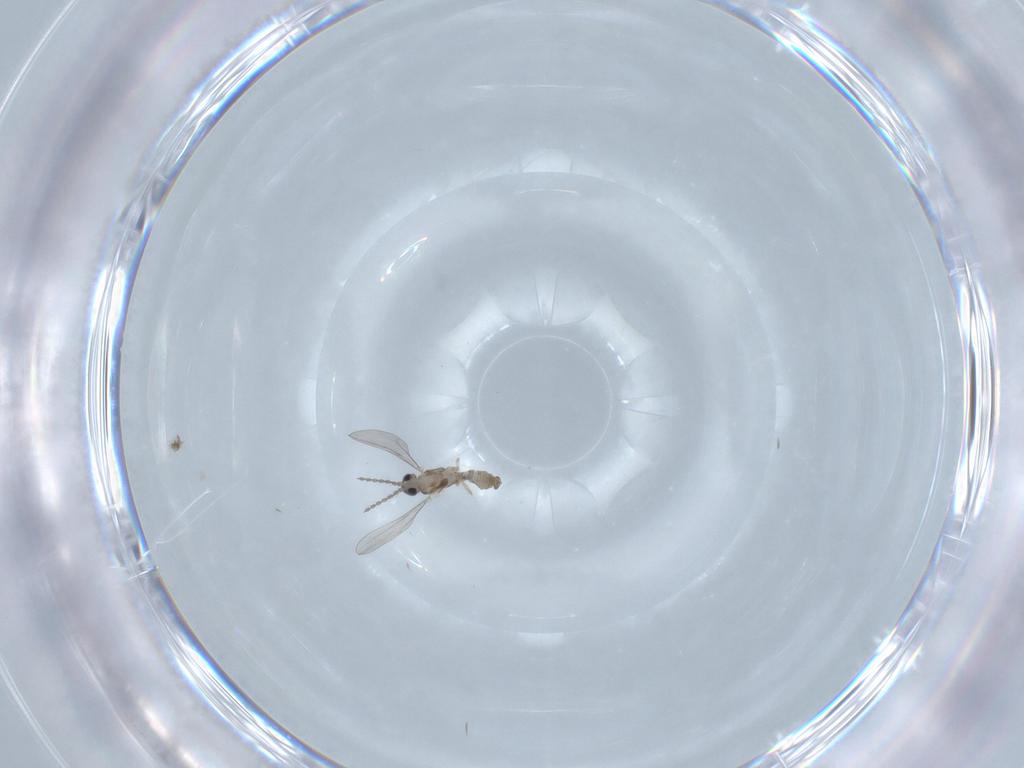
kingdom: Animalia
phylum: Arthropoda
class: Insecta
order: Diptera
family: Cecidomyiidae
